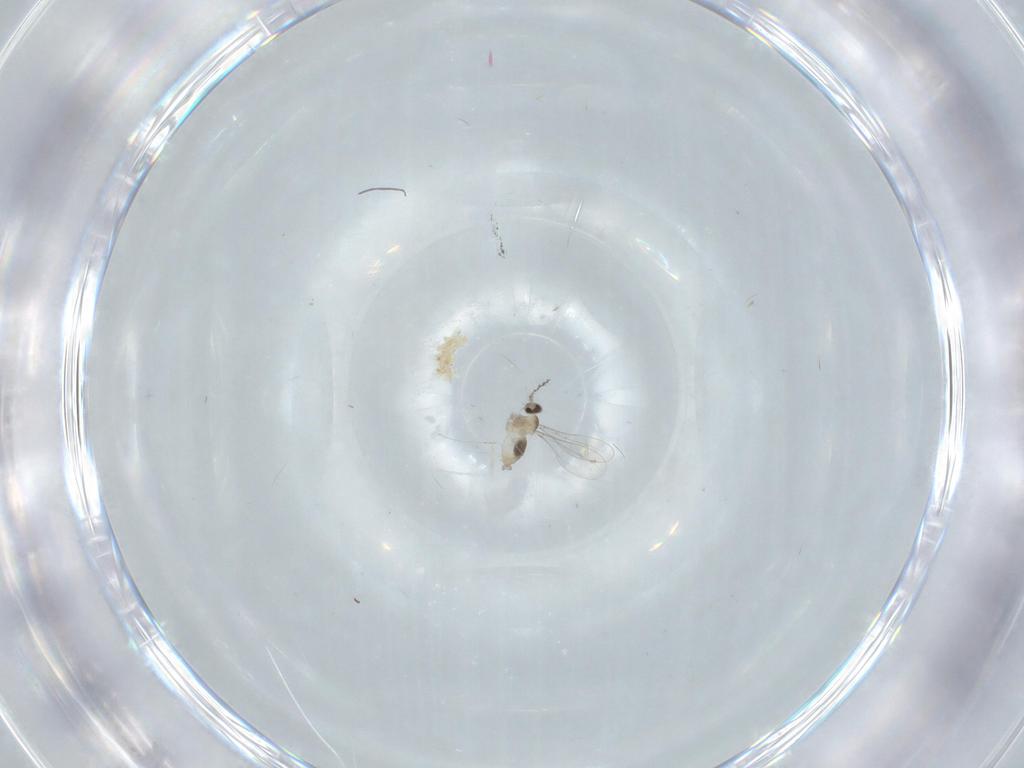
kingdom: Animalia
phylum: Arthropoda
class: Insecta
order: Diptera
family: Cecidomyiidae
